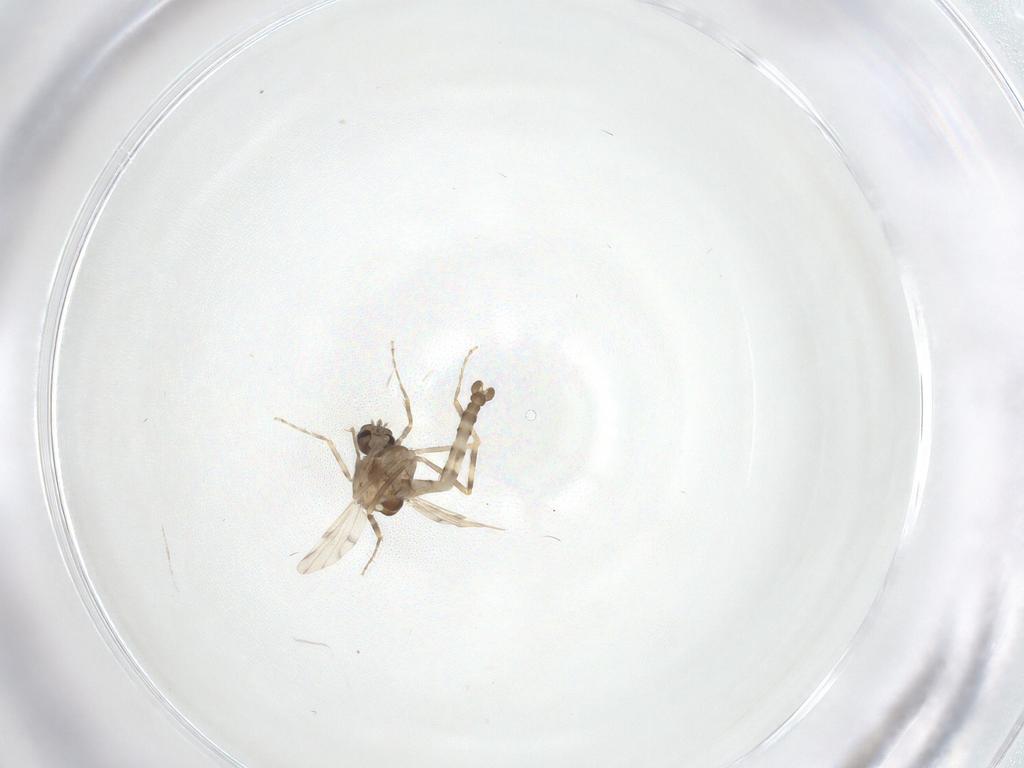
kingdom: Animalia
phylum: Arthropoda
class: Insecta
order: Diptera
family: Ceratopogonidae
